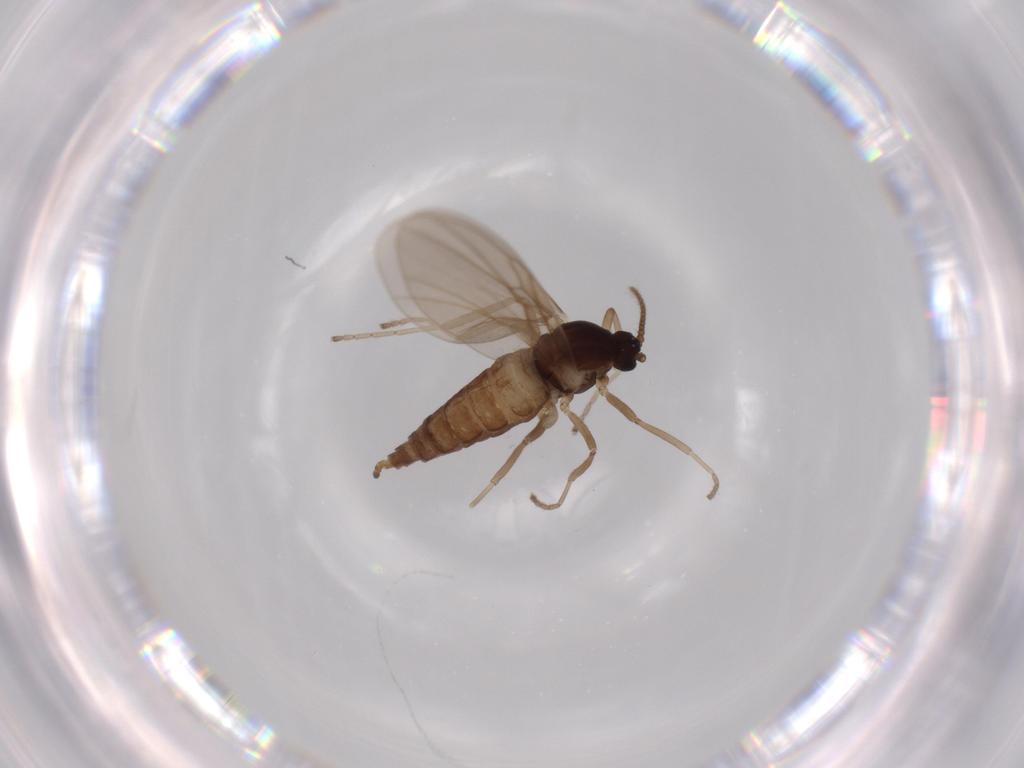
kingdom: Animalia
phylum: Arthropoda
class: Insecta
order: Diptera
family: Cecidomyiidae
